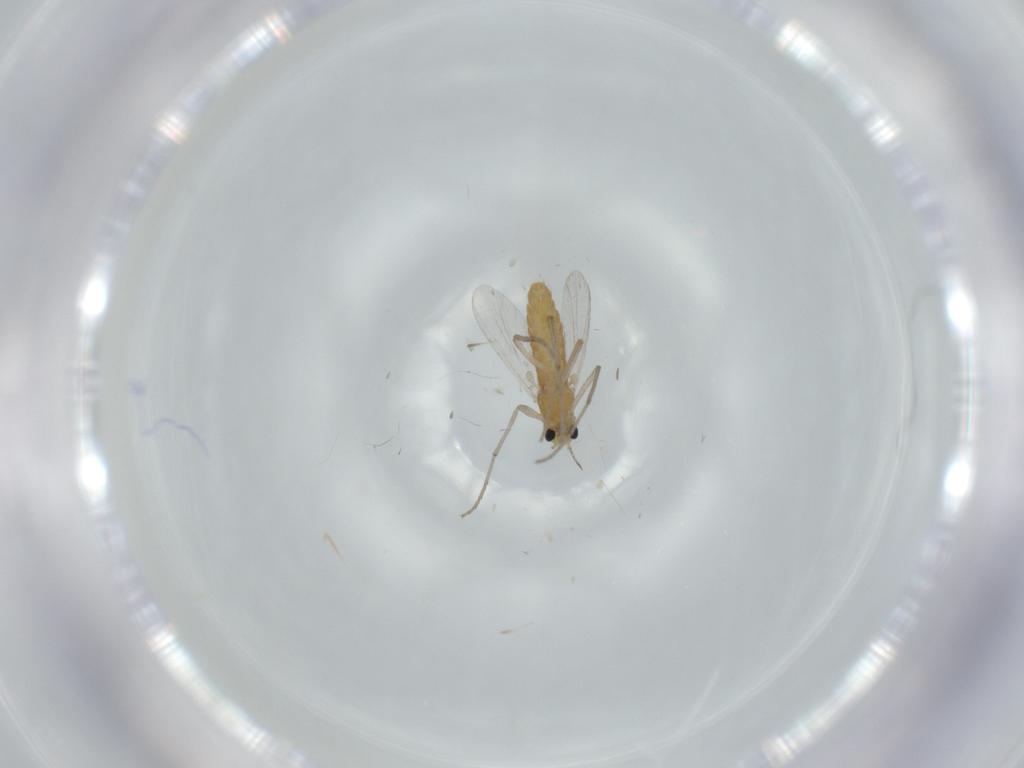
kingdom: Animalia
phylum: Arthropoda
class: Insecta
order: Diptera
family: Chironomidae
